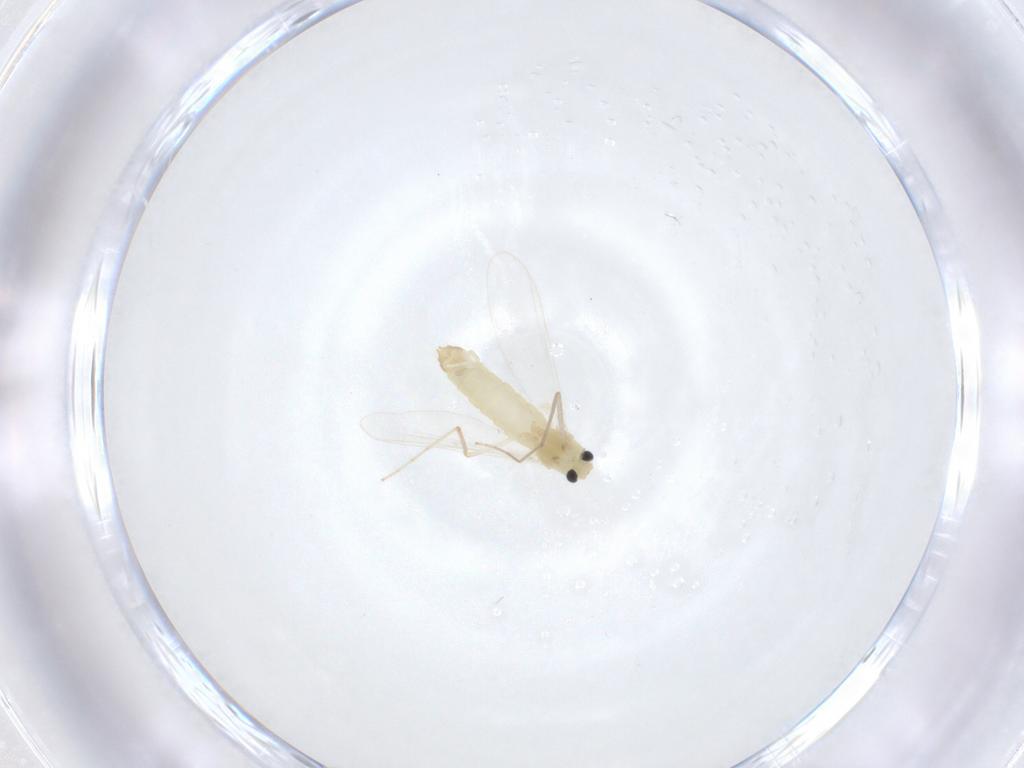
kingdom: Animalia
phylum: Arthropoda
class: Insecta
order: Diptera
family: Chironomidae
